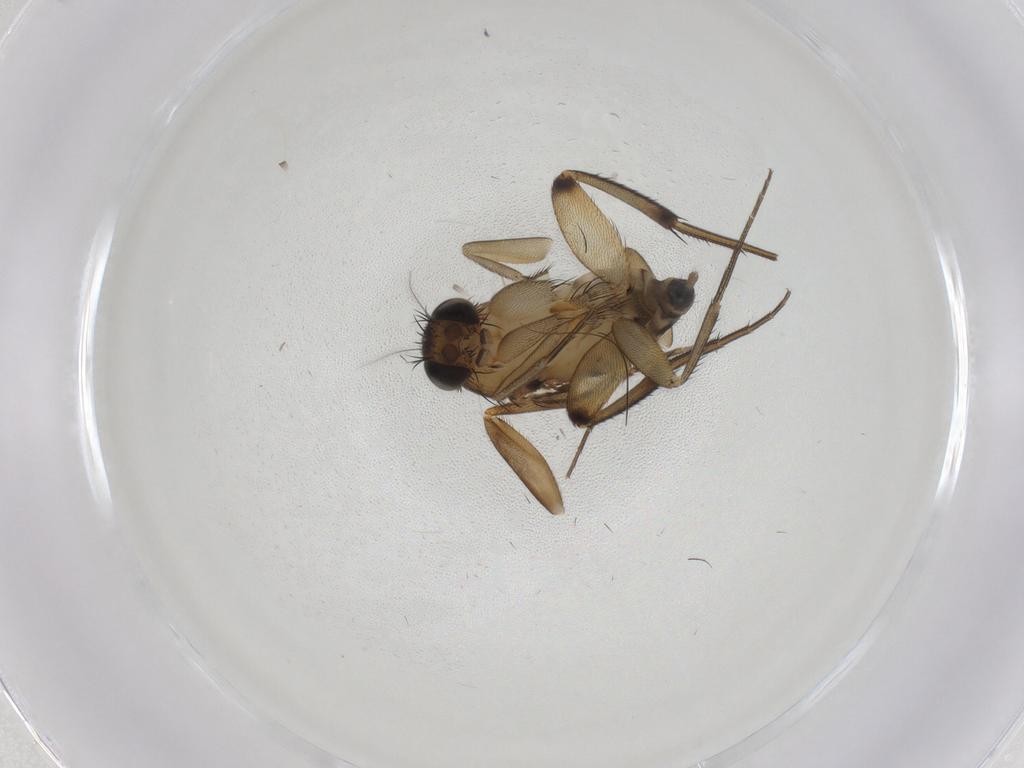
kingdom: Animalia
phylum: Arthropoda
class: Insecta
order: Diptera
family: Phoridae
